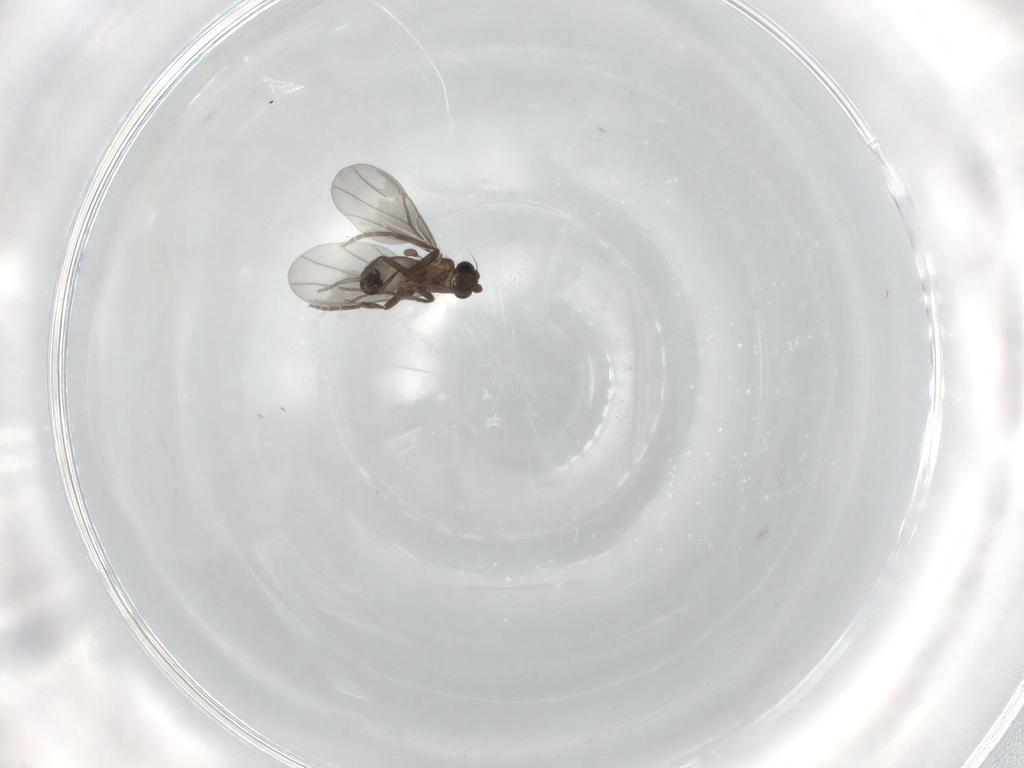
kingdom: Animalia
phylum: Arthropoda
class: Insecta
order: Diptera
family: Phoridae
